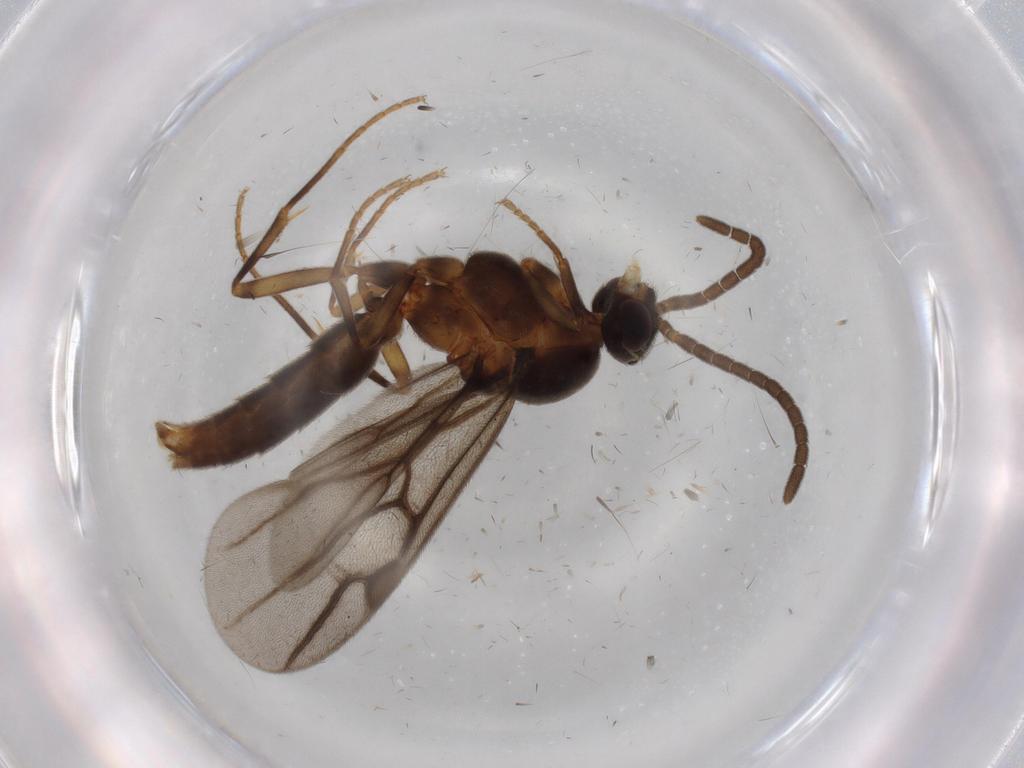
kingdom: Animalia
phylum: Arthropoda
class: Insecta
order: Hymenoptera
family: Formicidae
